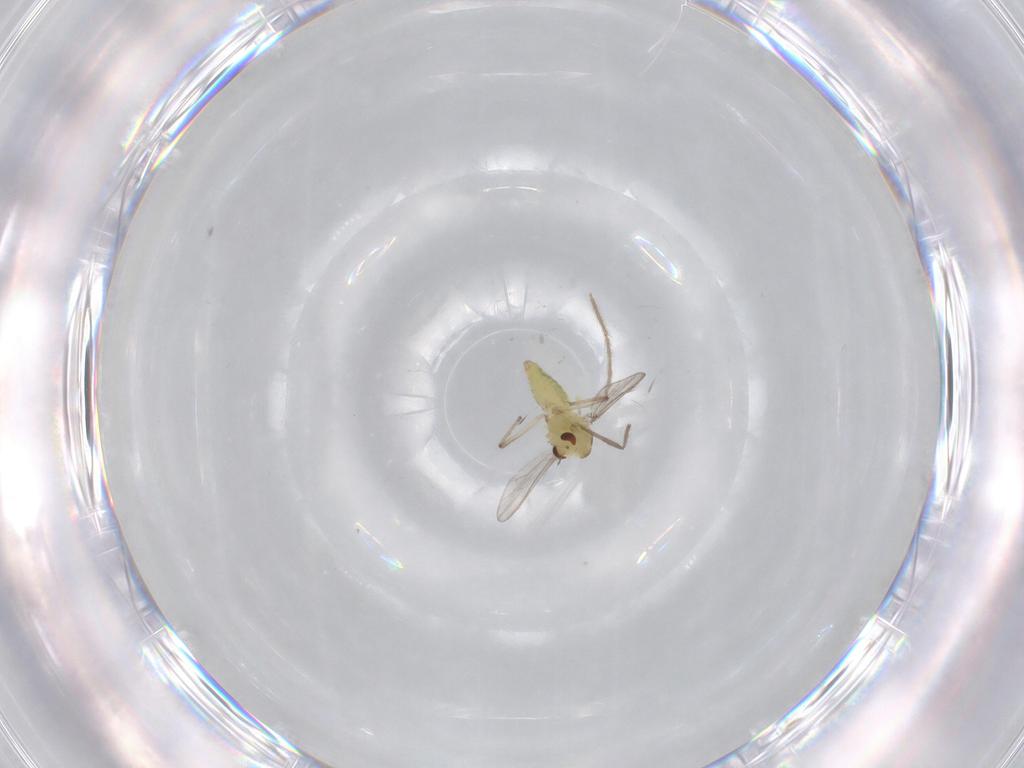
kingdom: Animalia
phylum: Arthropoda
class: Insecta
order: Diptera
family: Chironomidae
